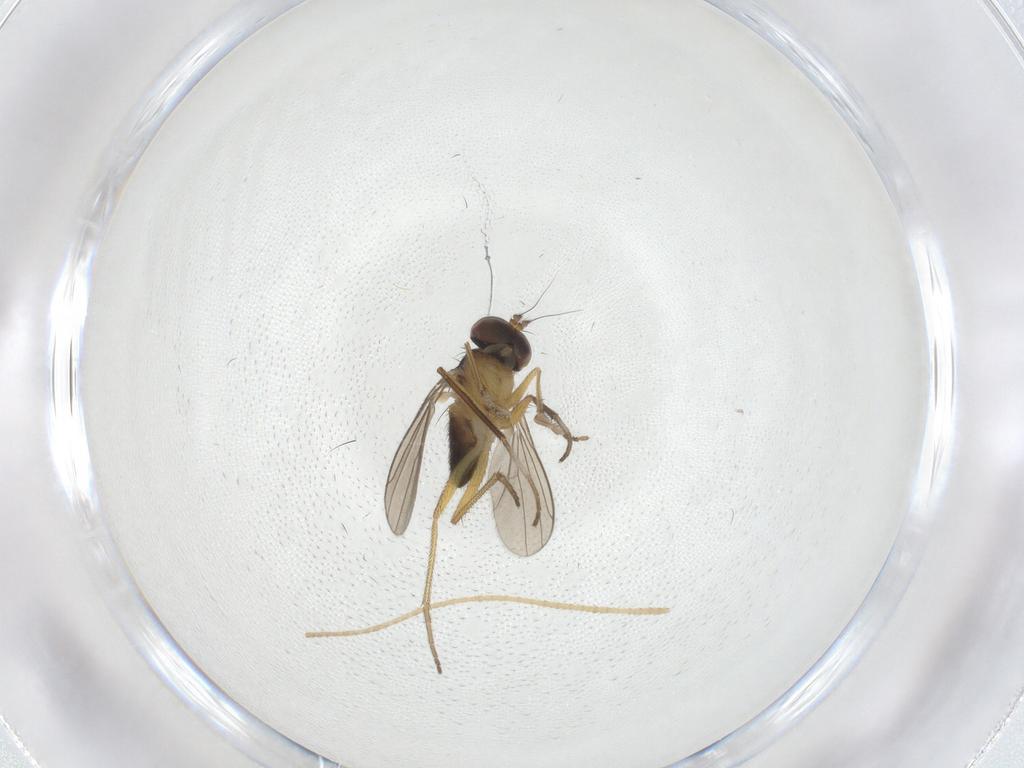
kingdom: Animalia
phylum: Arthropoda
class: Insecta
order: Diptera
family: Dolichopodidae
